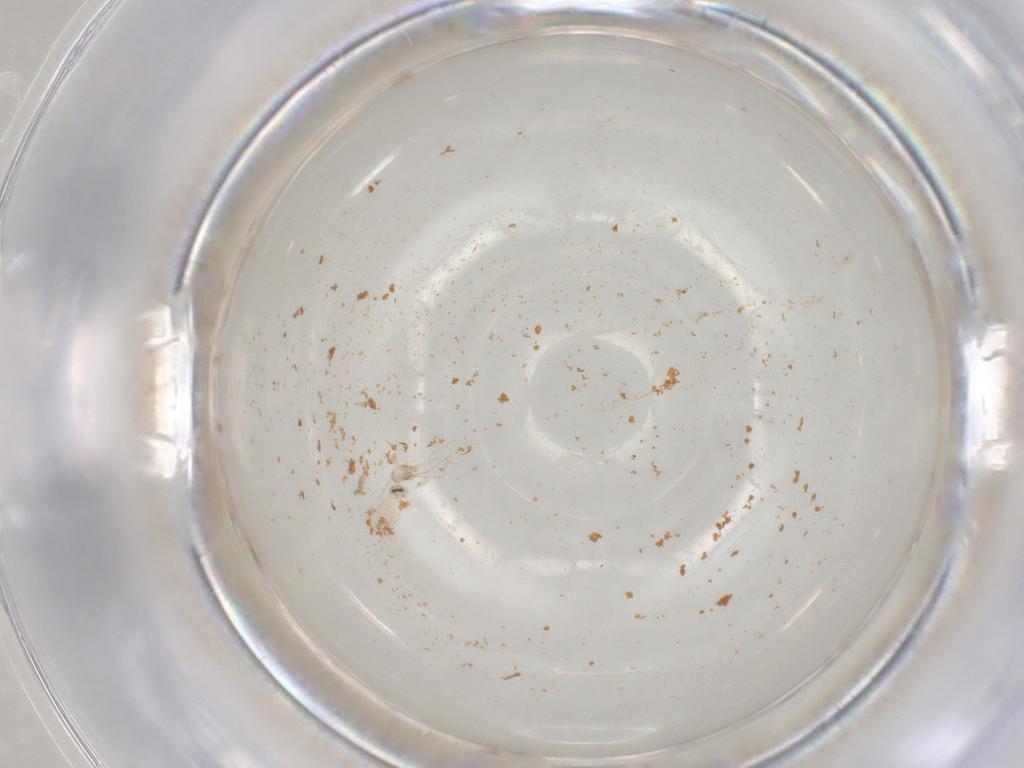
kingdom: Animalia
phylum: Arthropoda
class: Insecta
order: Diptera
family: Cecidomyiidae
